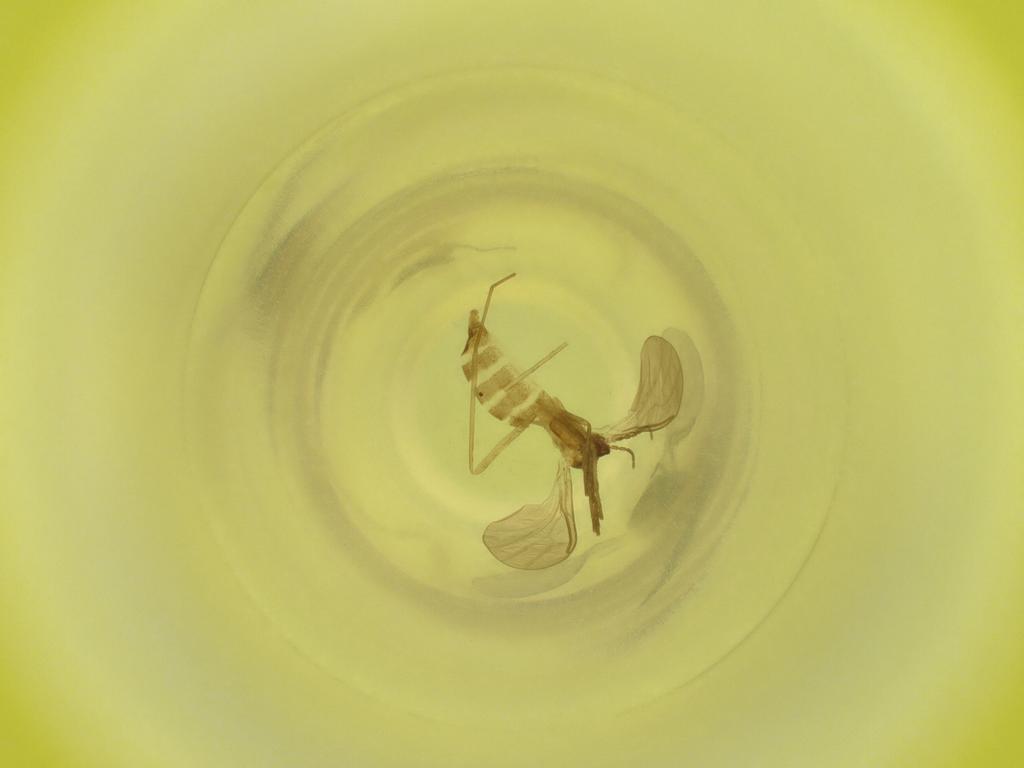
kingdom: Animalia
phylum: Arthropoda
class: Insecta
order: Diptera
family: Cecidomyiidae
